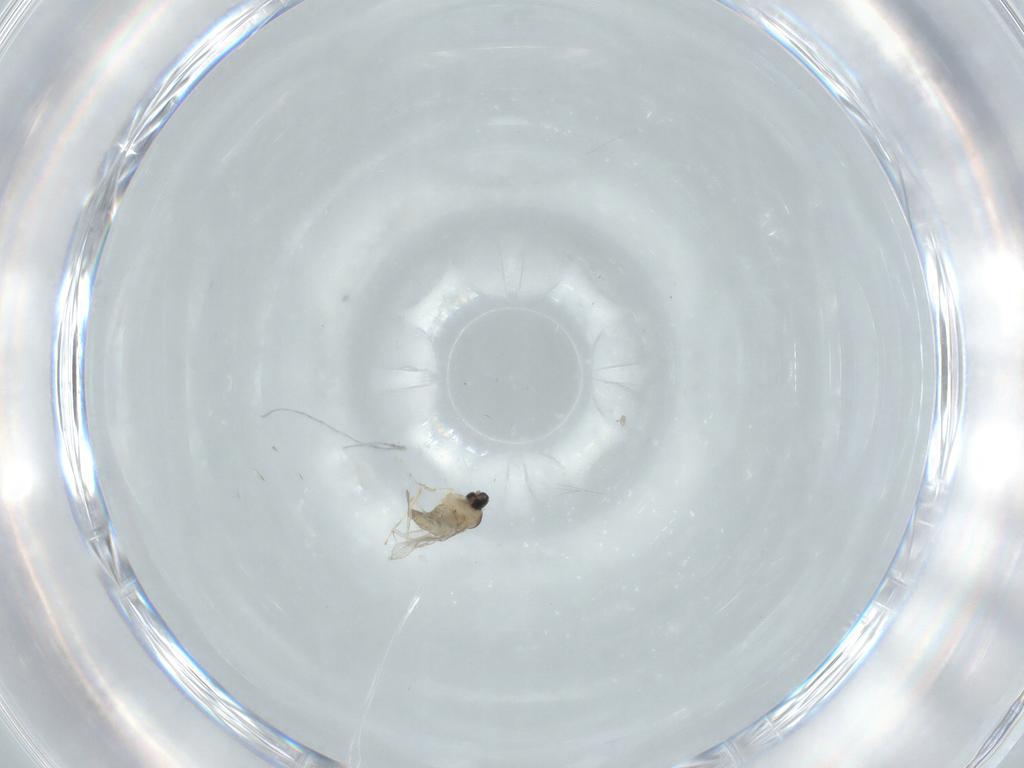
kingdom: Animalia
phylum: Arthropoda
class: Insecta
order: Diptera
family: Cecidomyiidae
